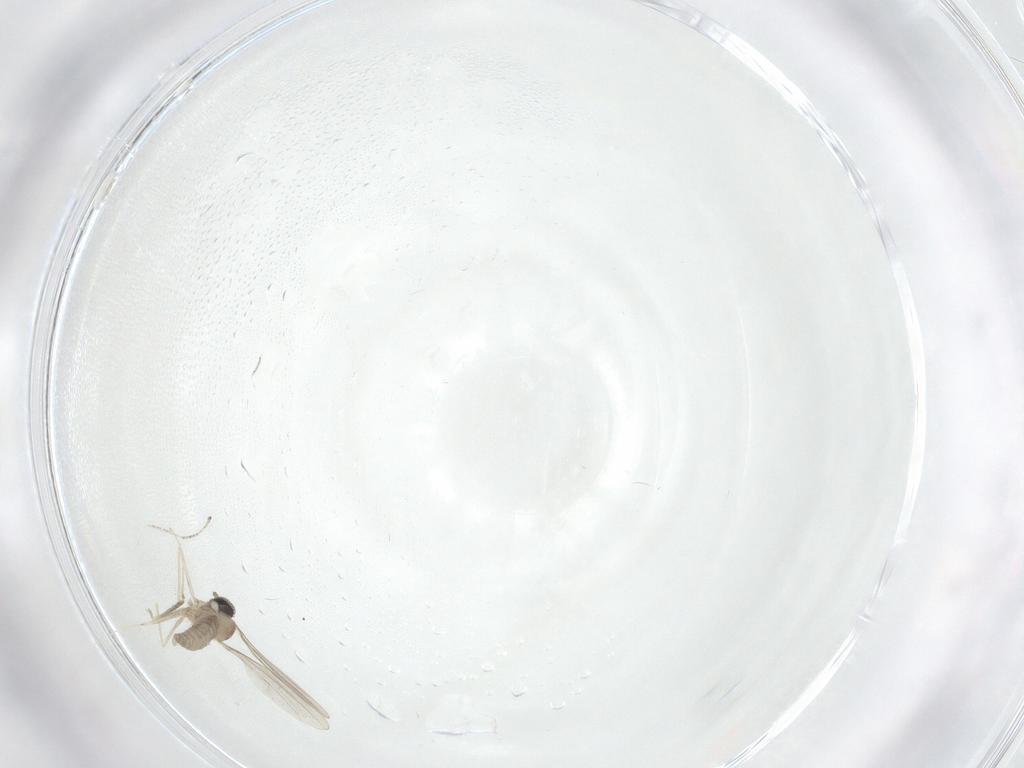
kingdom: Animalia
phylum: Arthropoda
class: Insecta
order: Diptera
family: Cecidomyiidae
